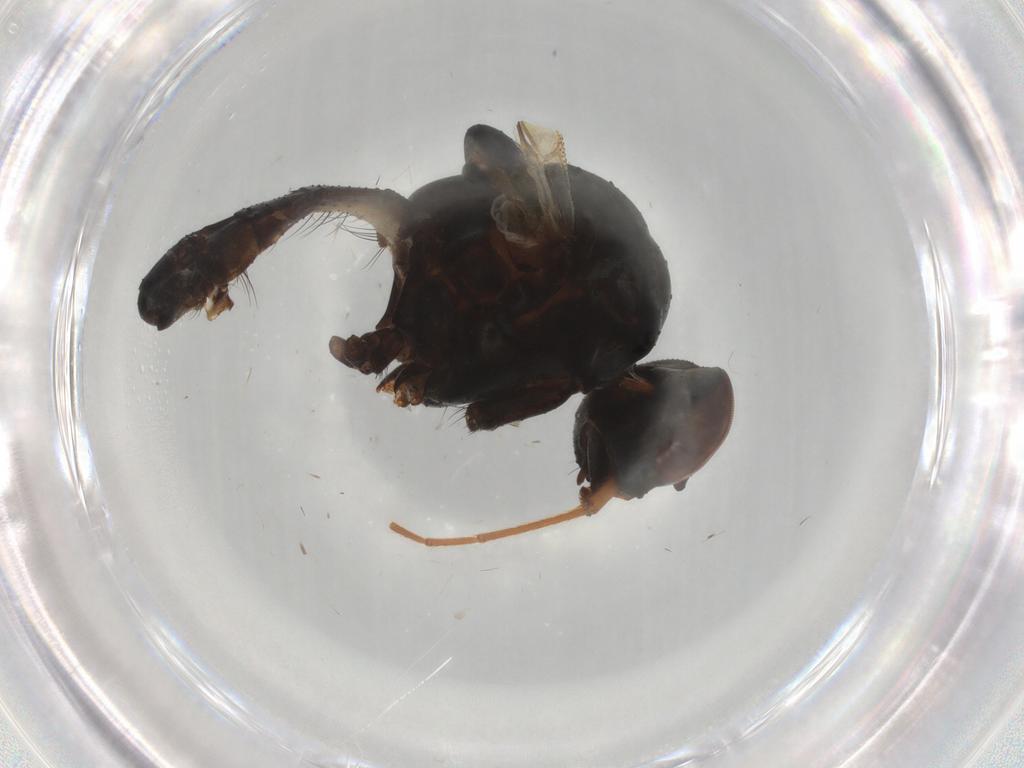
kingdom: Animalia
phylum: Arthropoda
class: Insecta
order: Diptera
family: Anthomyiidae
